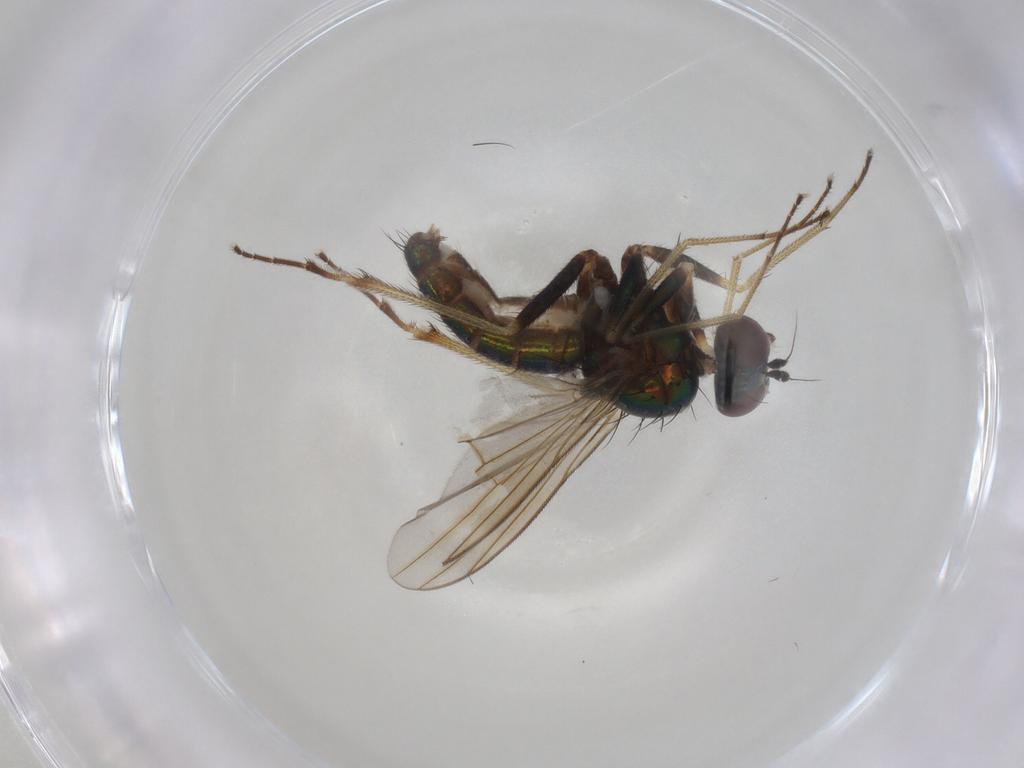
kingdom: Animalia
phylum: Arthropoda
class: Insecta
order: Diptera
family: Dolichopodidae
